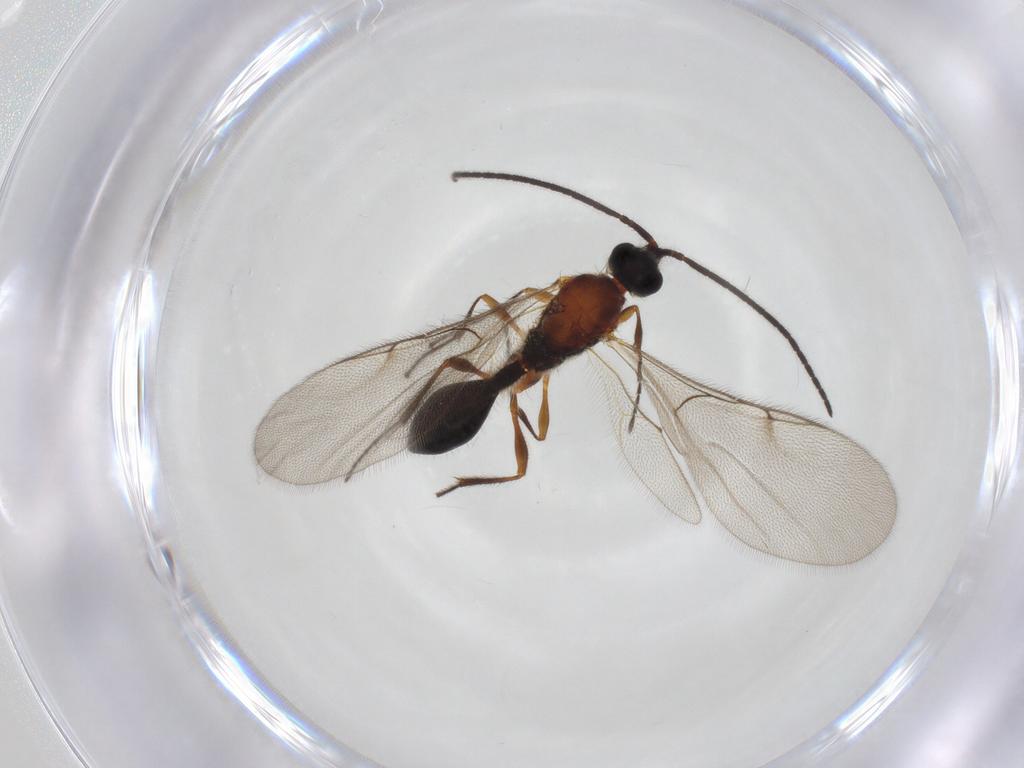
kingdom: Animalia
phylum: Arthropoda
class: Insecta
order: Hymenoptera
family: Diapriidae
